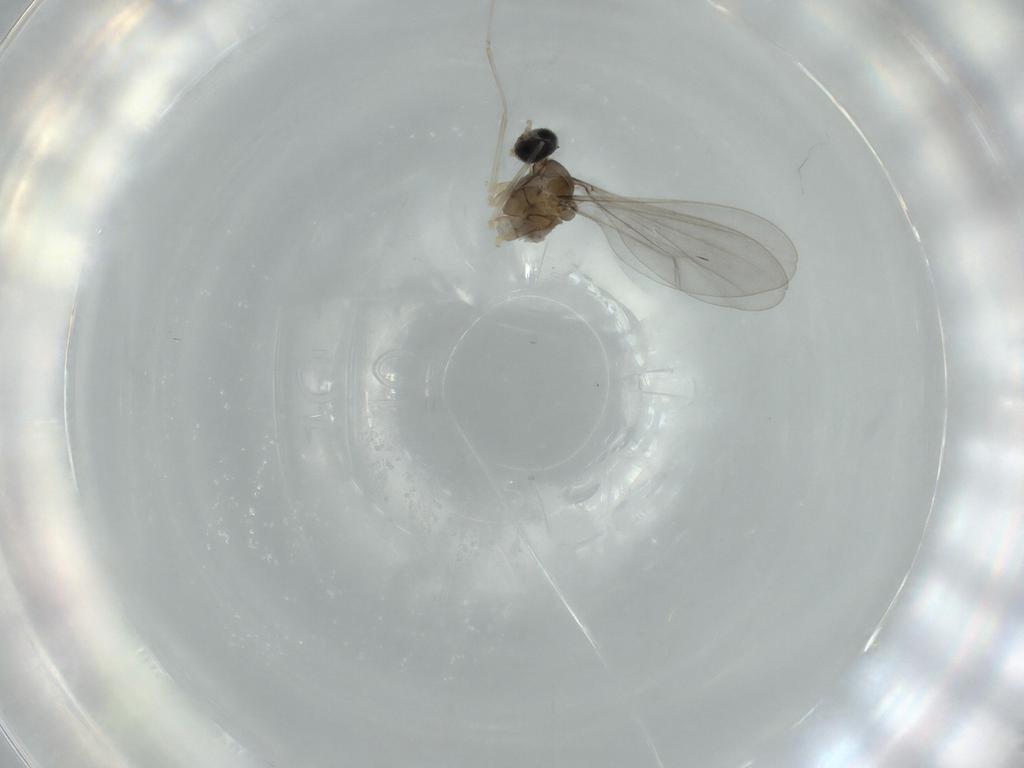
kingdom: Animalia
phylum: Arthropoda
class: Insecta
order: Diptera
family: Cecidomyiidae
